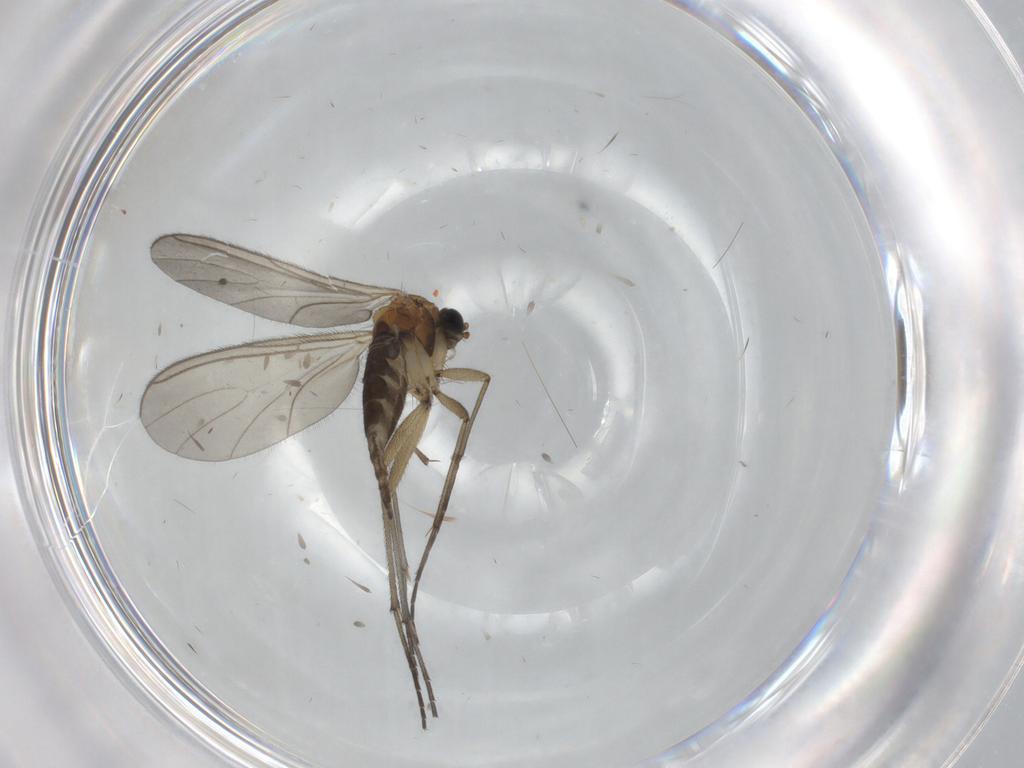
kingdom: Animalia
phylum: Arthropoda
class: Insecta
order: Diptera
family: Sciaridae
